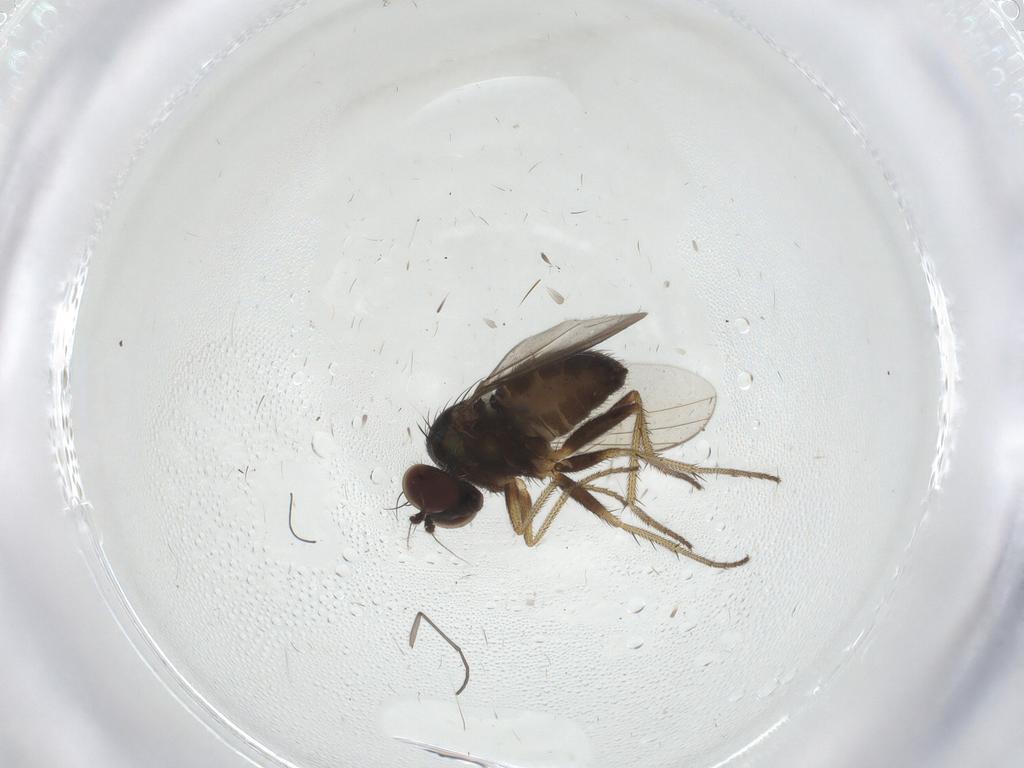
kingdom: Animalia
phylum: Arthropoda
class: Insecta
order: Diptera
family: Dolichopodidae
